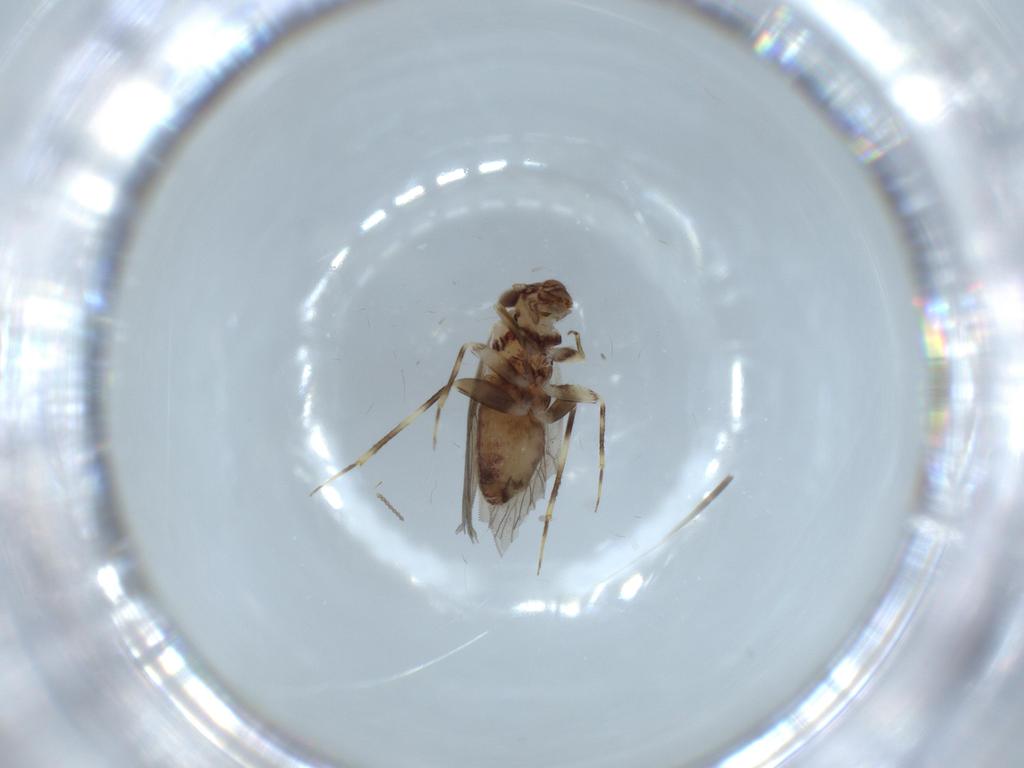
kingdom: Animalia
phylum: Arthropoda
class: Insecta
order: Psocodea
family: Lepidopsocidae
